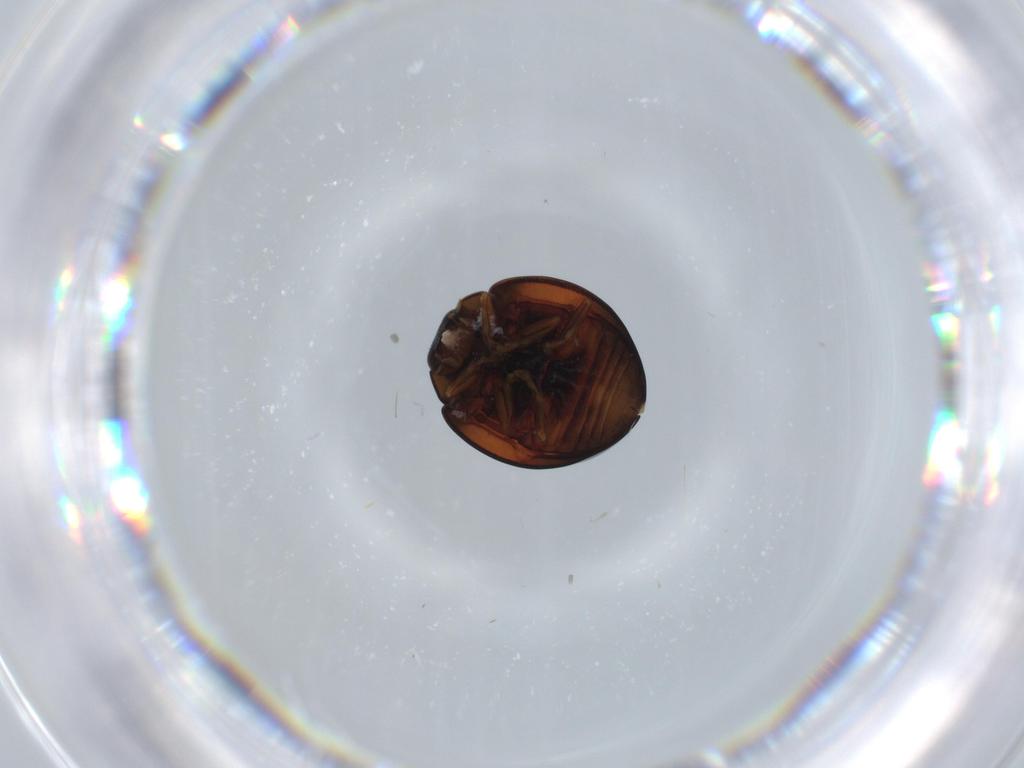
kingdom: Animalia
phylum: Arthropoda
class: Insecta
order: Coleoptera
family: Coccinellidae
